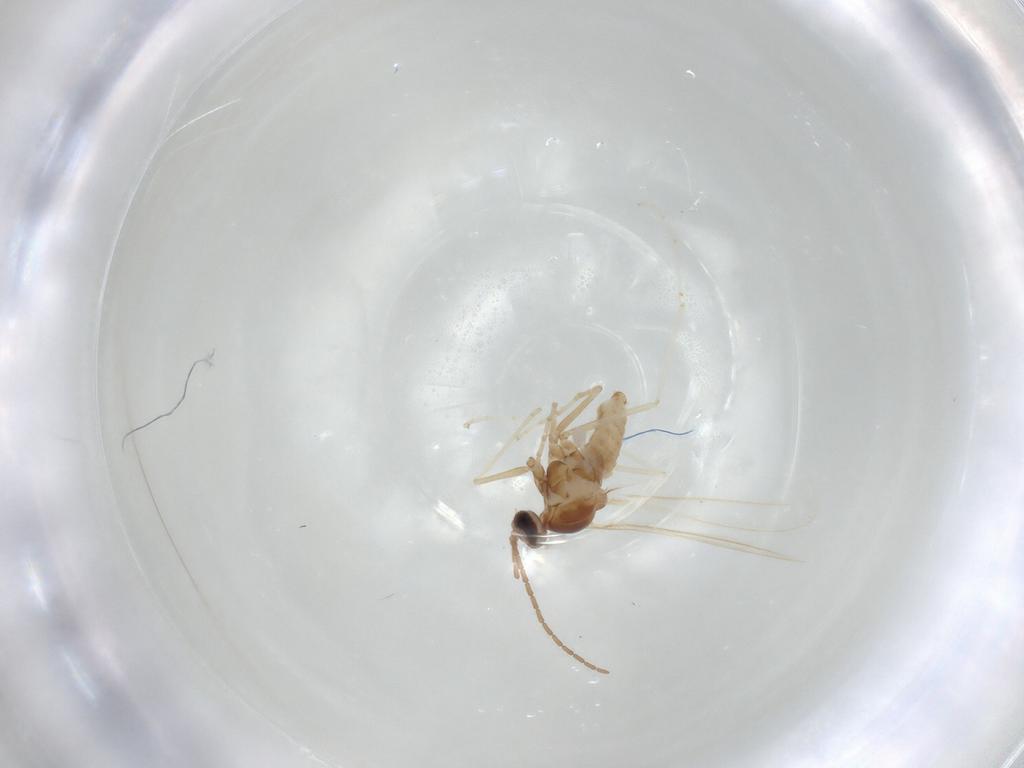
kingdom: Animalia
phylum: Arthropoda
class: Insecta
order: Diptera
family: Cecidomyiidae
